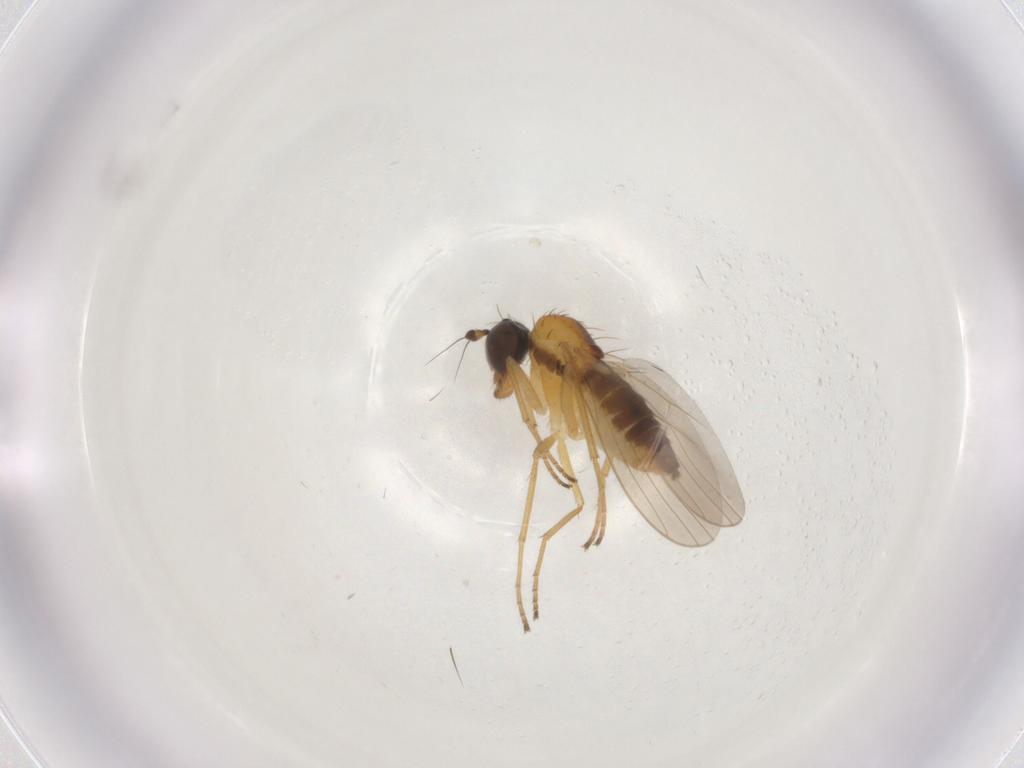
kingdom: Animalia
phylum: Arthropoda
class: Insecta
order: Diptera
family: Dolichopodidae
